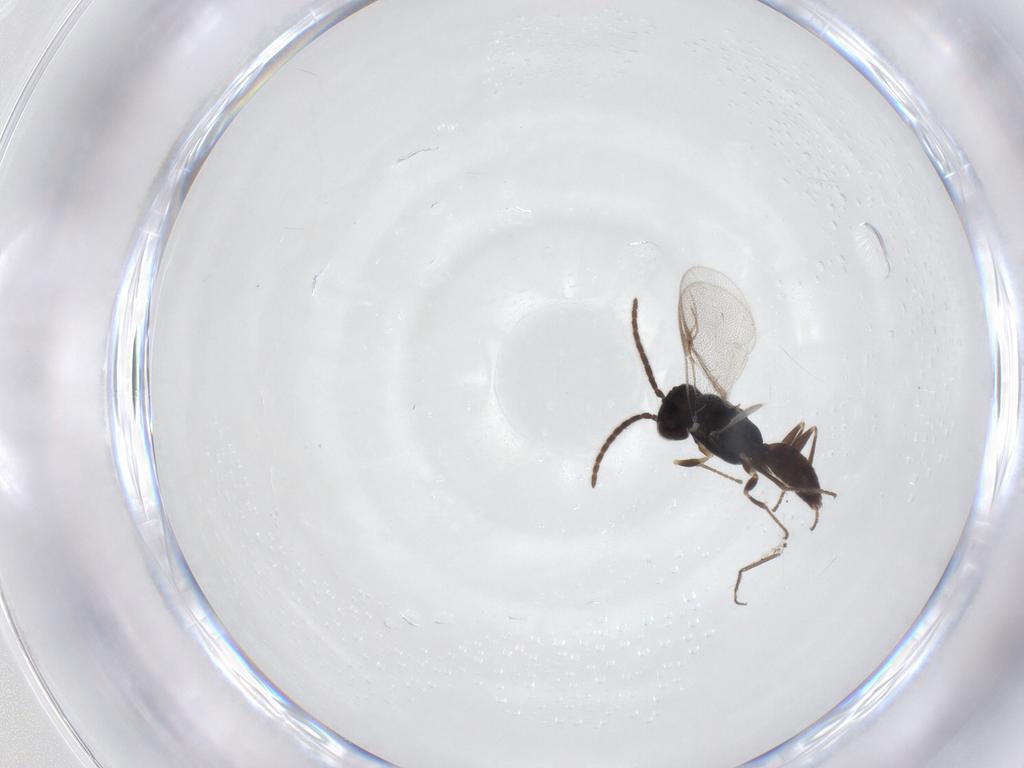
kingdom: Animalia
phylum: Arthropoda
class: Insecta
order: Hymenoptera
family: Dryinidae
